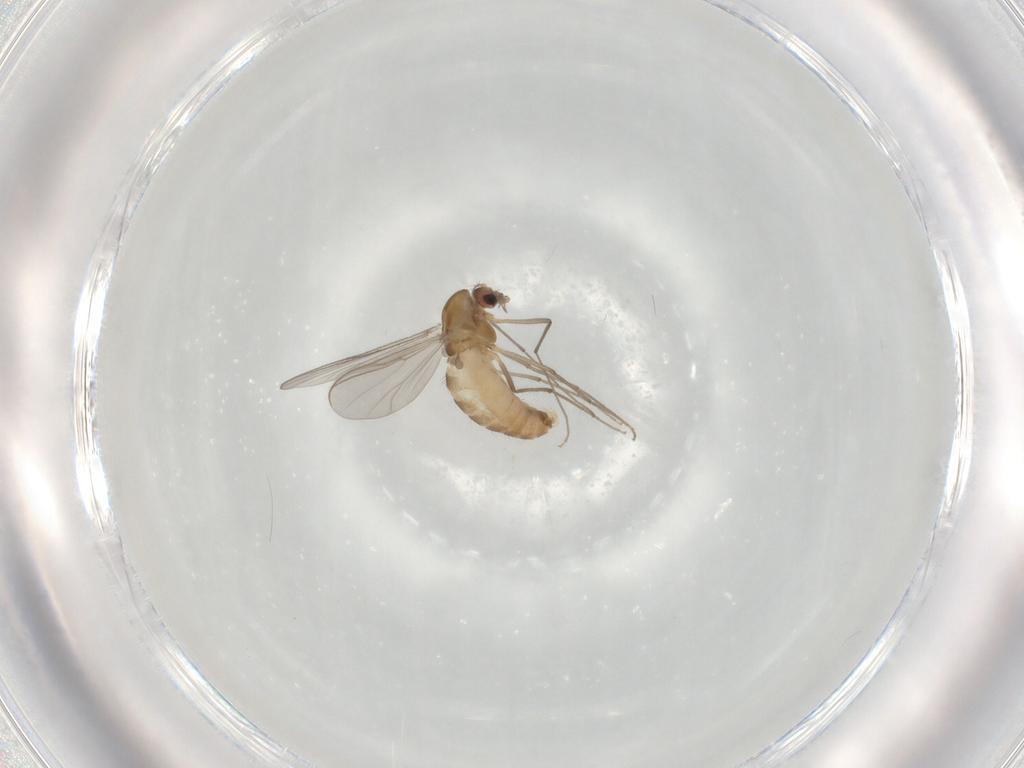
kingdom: Animalia
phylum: Arthropoda
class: Insecta
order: Diptera
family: Chironomidae
